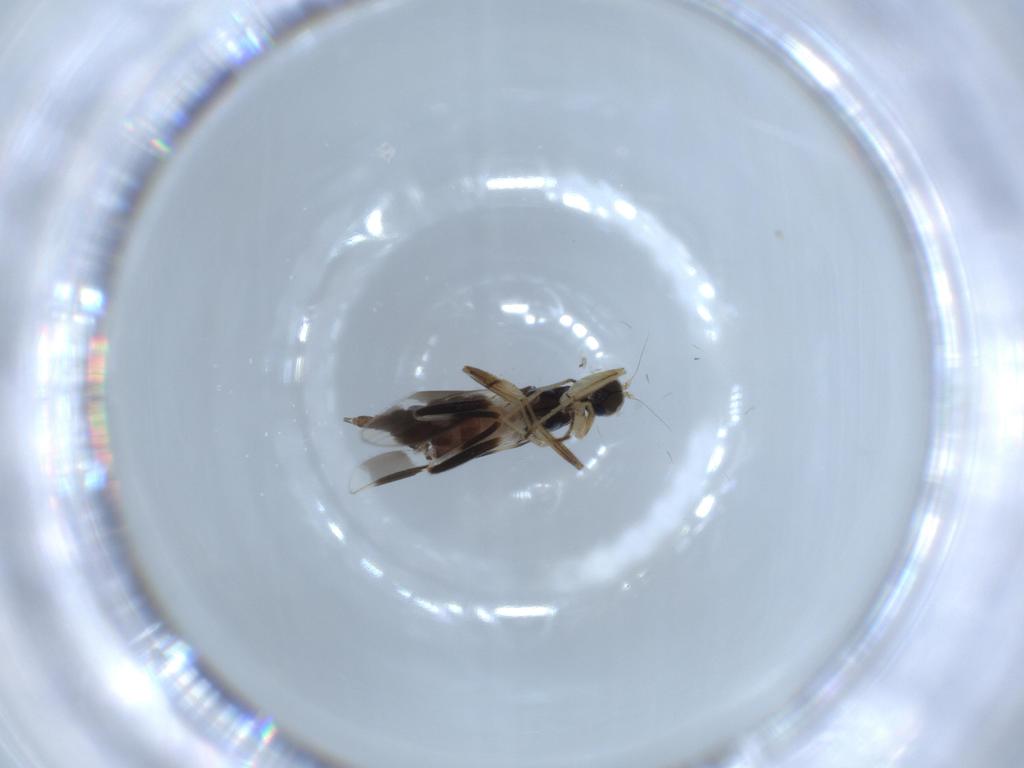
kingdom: Animalia
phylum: Arthropoda
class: Insecta
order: Diptera
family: Hybotidae
